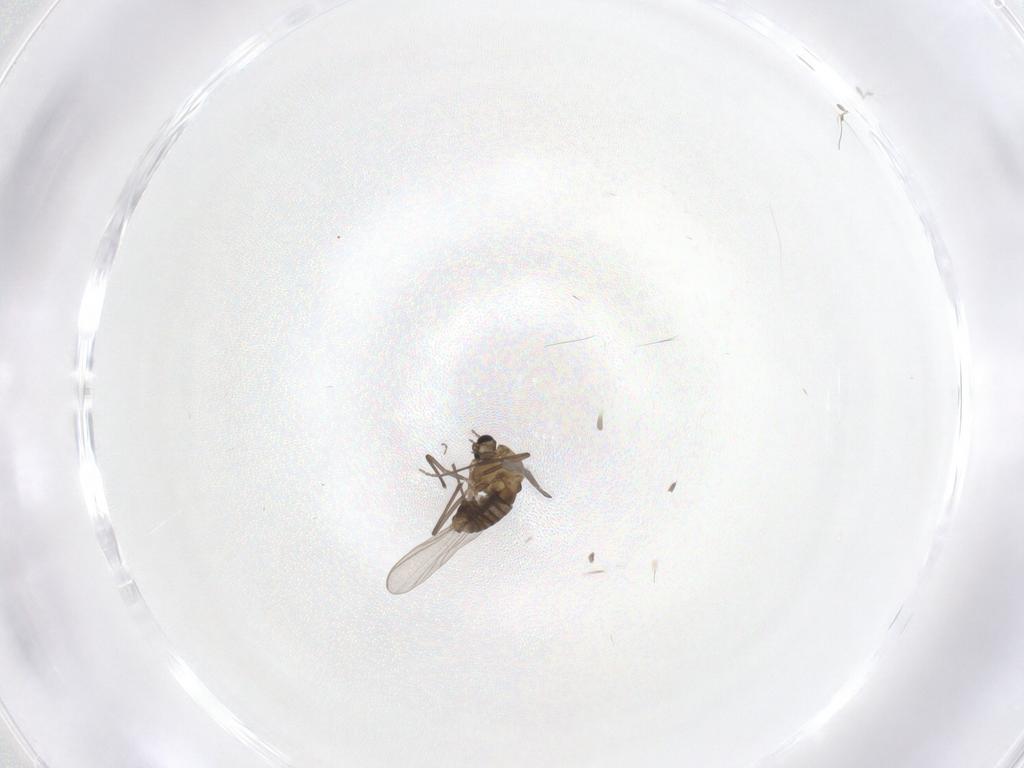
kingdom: Animalia
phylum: Arthropoda
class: Insecta
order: Diptera
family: Chironomidae
